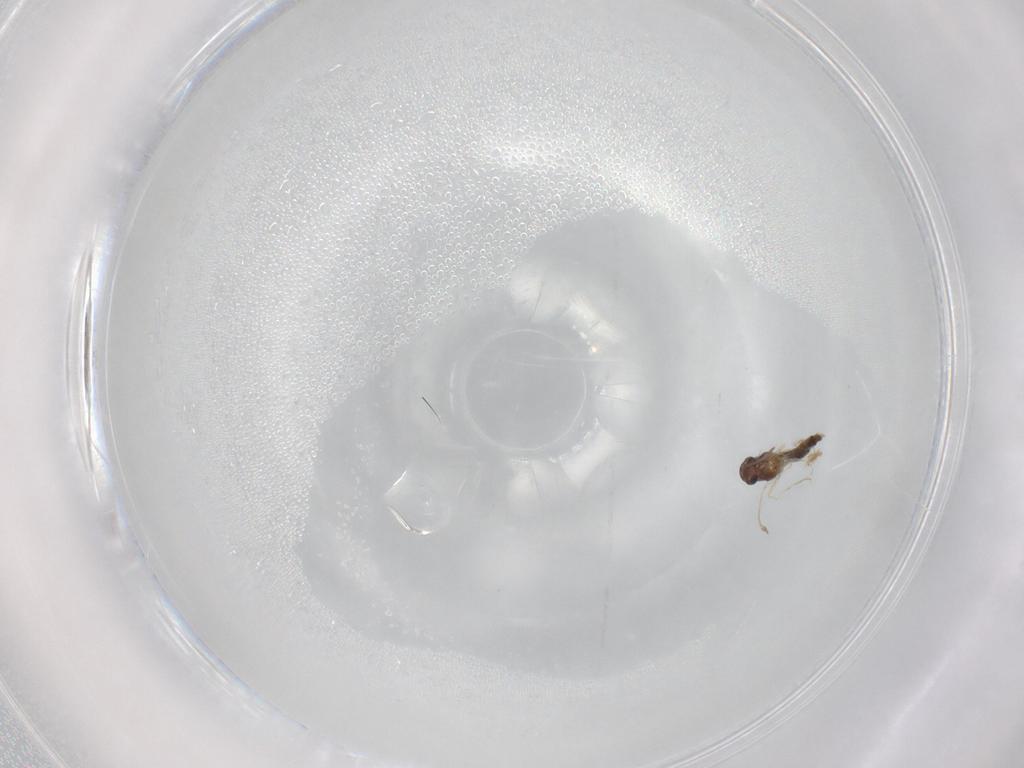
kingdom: Animalia
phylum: Arthropoda
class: Insecta
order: Diptera
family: Chironomidae
